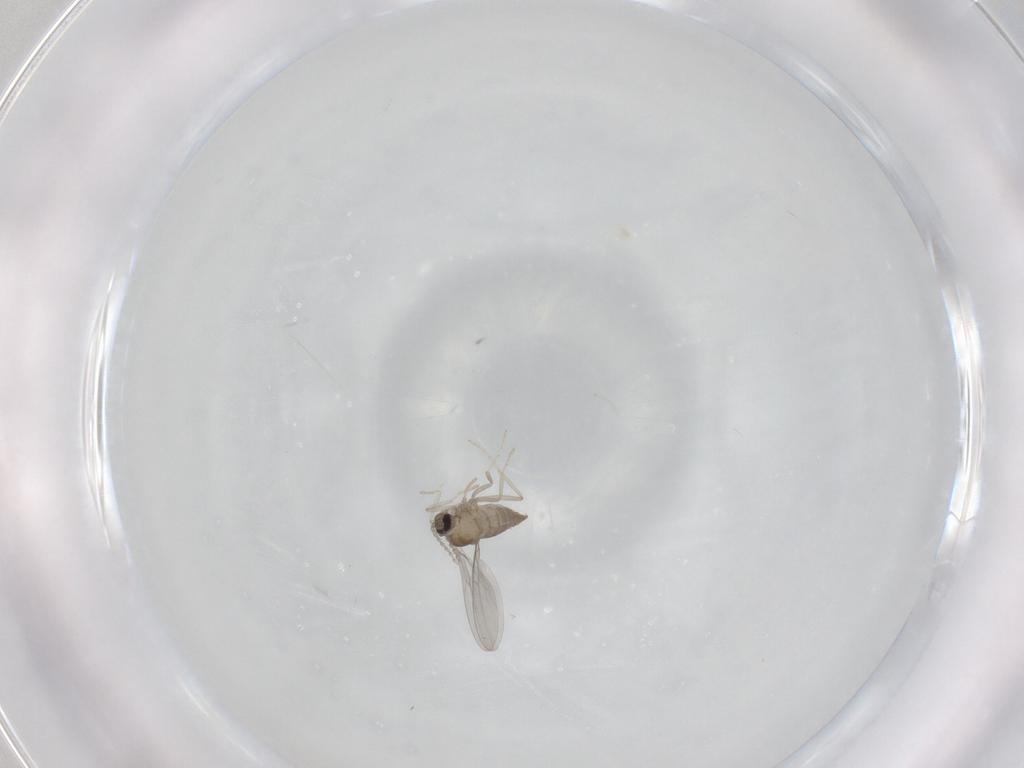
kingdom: Animalia
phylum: Arthropoda
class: Insecta
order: Diptera
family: Cecidomyiidae
